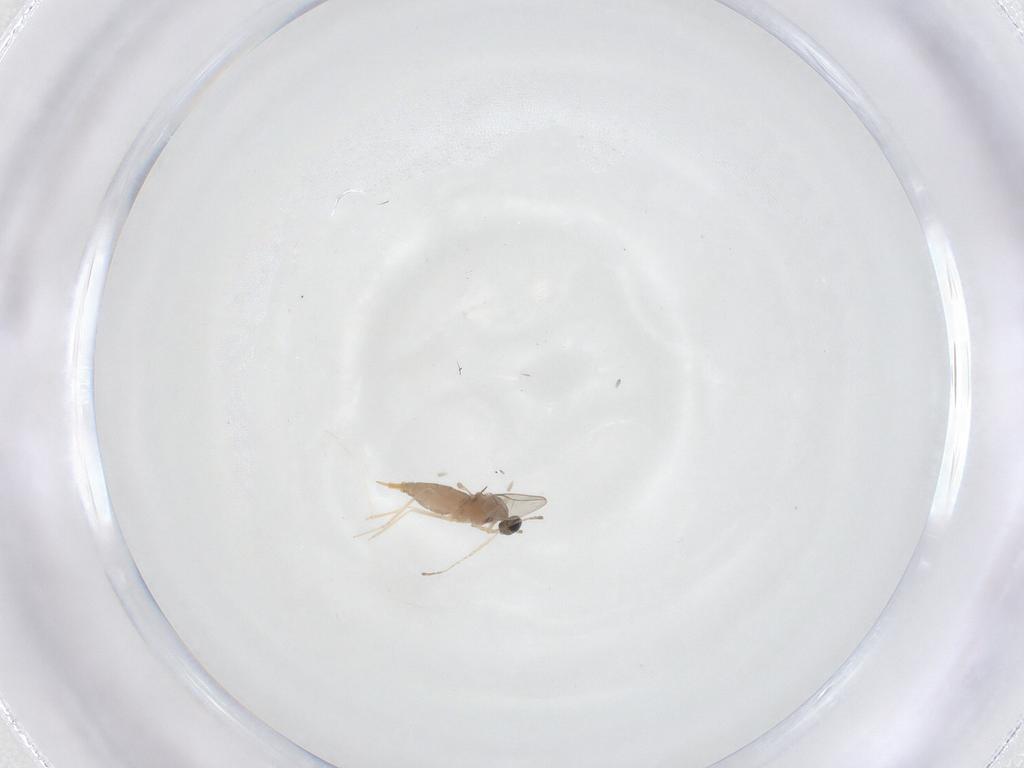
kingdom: Animalia
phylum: Arthropoda
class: Insecta
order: Diptera
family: Cecidomyiidae
